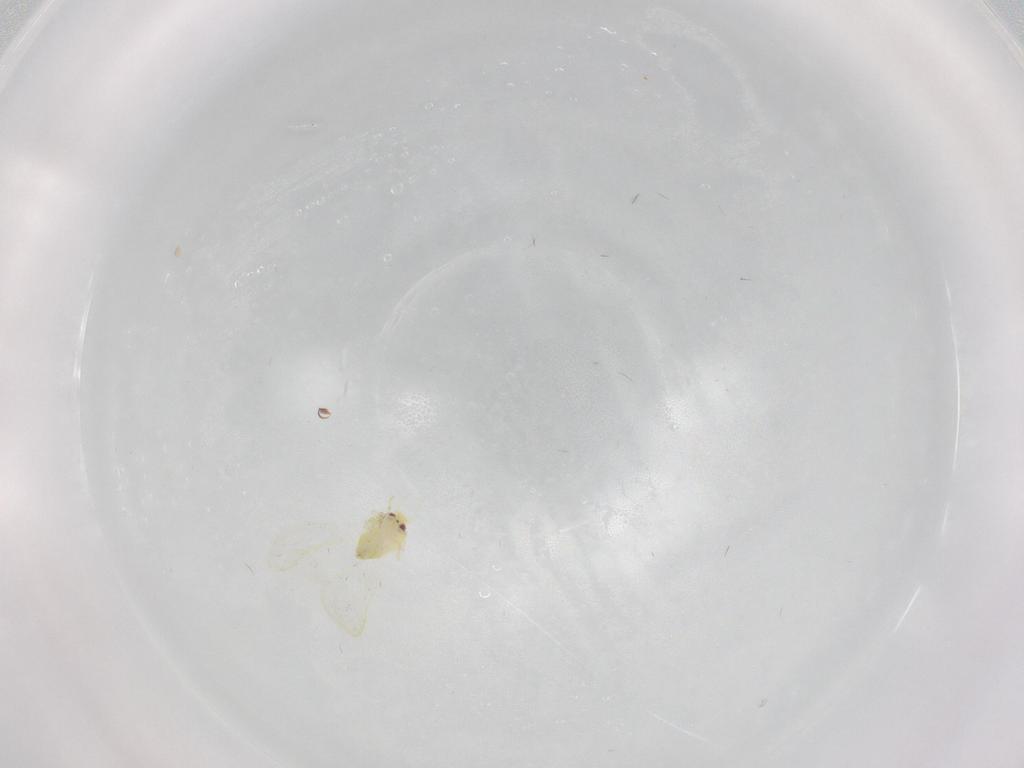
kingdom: Animalia
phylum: Arthropoda
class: Insecta
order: Hemiptera
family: Aleyrodidae
